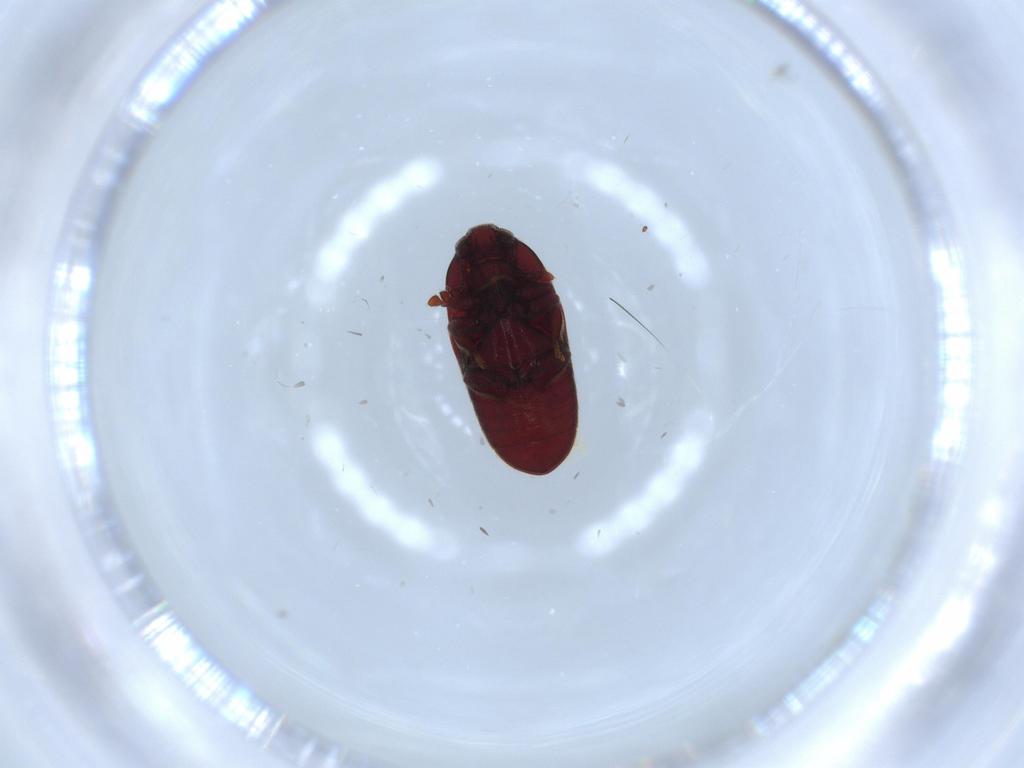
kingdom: Animalia
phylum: Arthropoda
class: Insecta
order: Coleoptera
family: Throscidae
